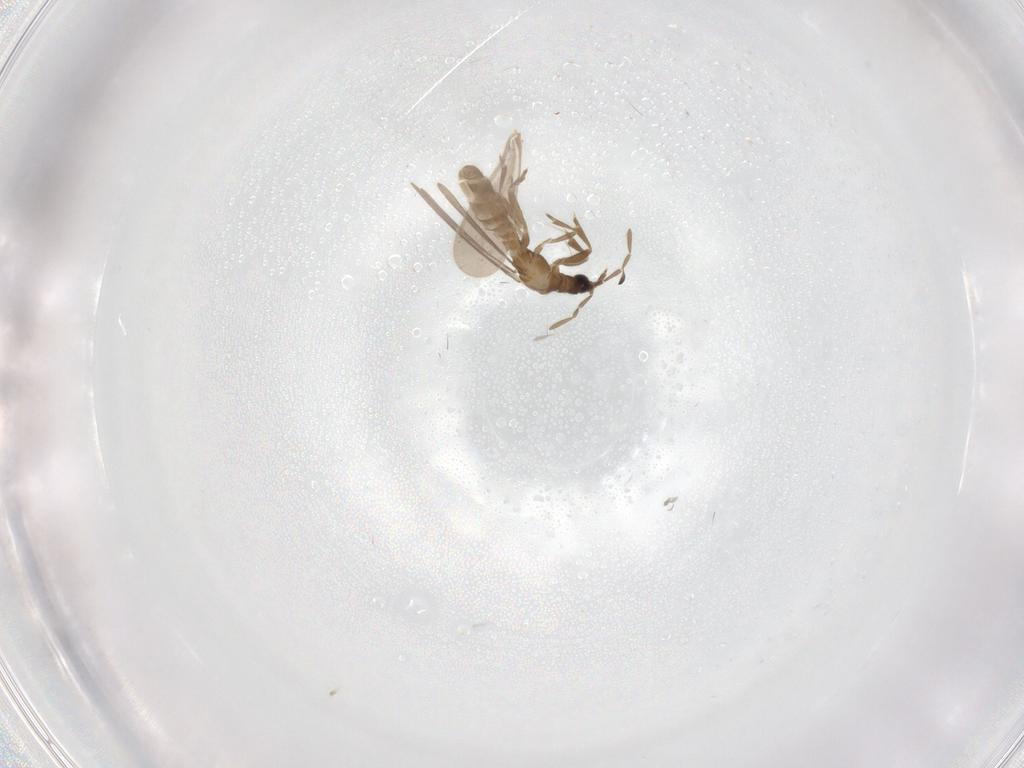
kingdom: Animalia
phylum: Arthropoda
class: Insecta
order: Hemiptera
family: Enicocephalidae
